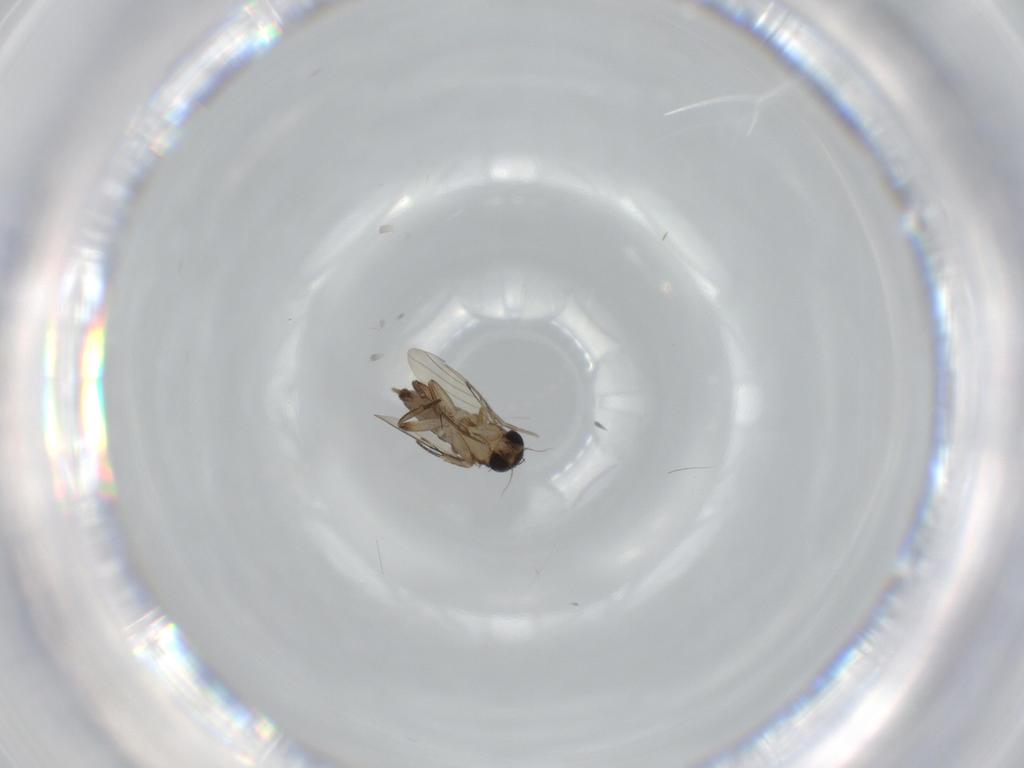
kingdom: Animalia
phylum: Arthropoda
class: Insecta
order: Diptera
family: Phoridae
